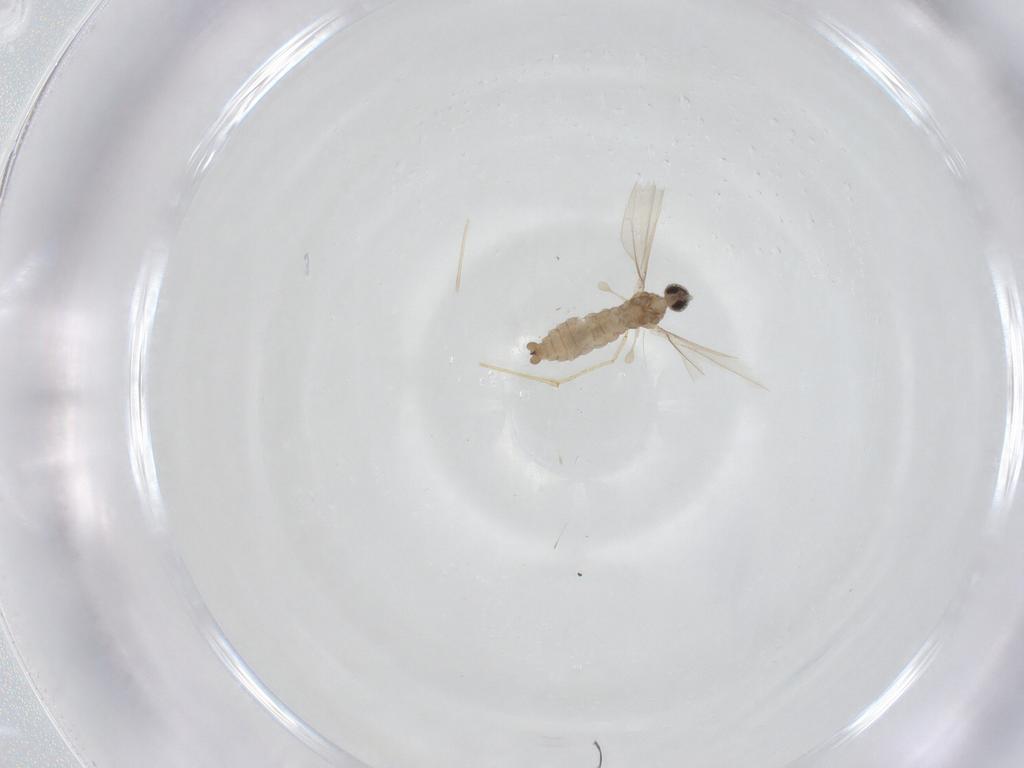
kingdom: Animalia
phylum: Arthropoda
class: Insecta
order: Diptera
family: Cecidomyiidae
